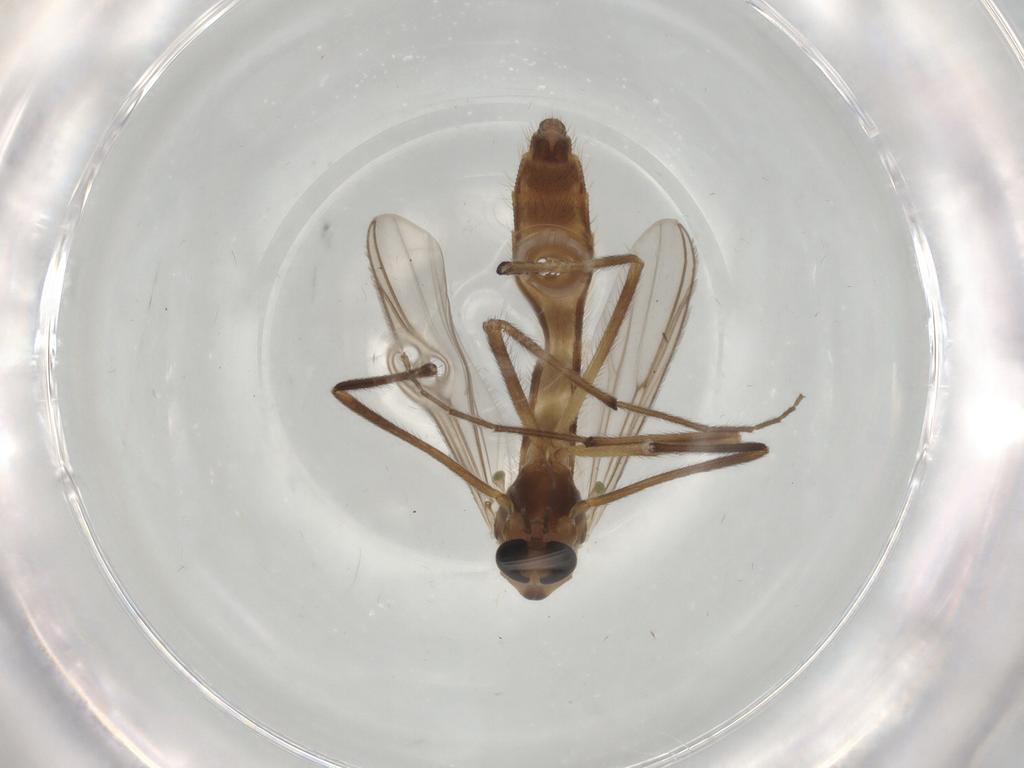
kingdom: Animalia
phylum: Arthropoda
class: Insecta
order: Diptera
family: Chironomidae
